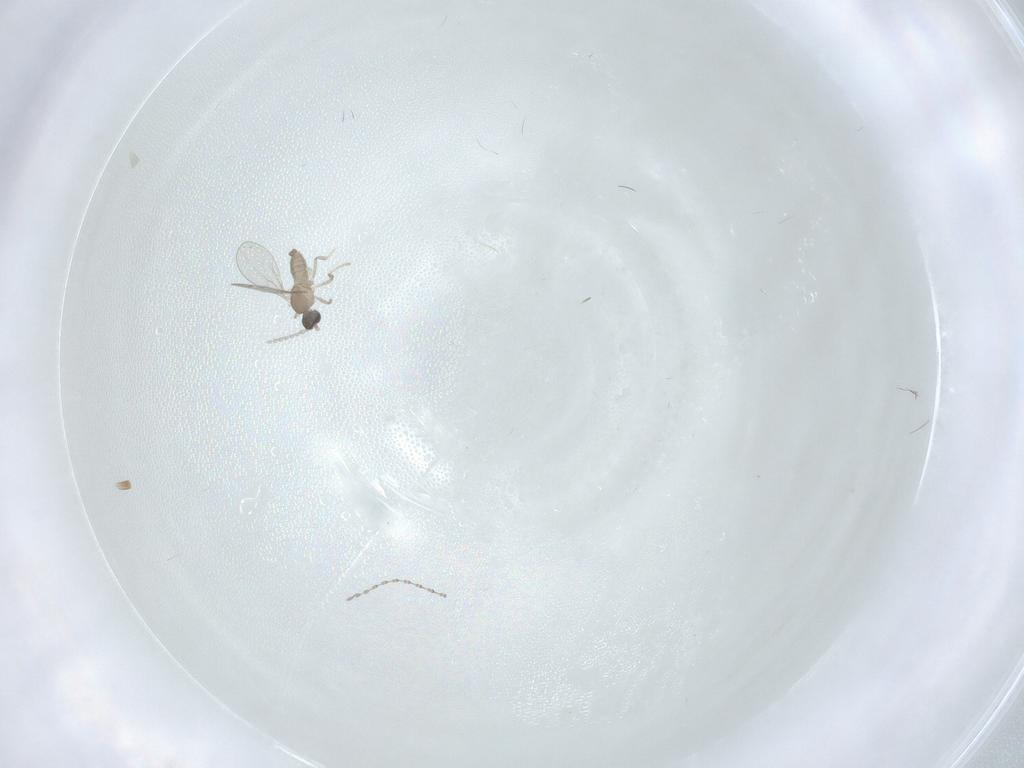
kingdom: Animalia
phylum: Arthropoda
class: Insecta
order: Diptera
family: Cecidomyiidae
